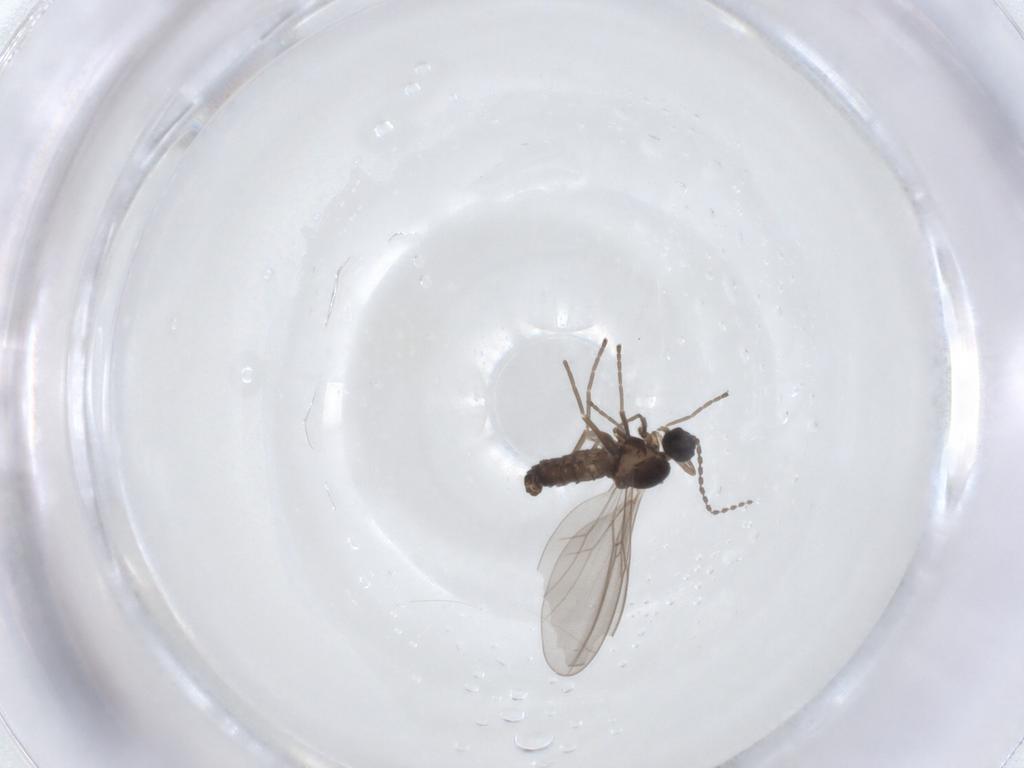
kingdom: Animalia
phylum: Arthropoda
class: Insecta
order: Diptera
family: Cecidomyiidae
